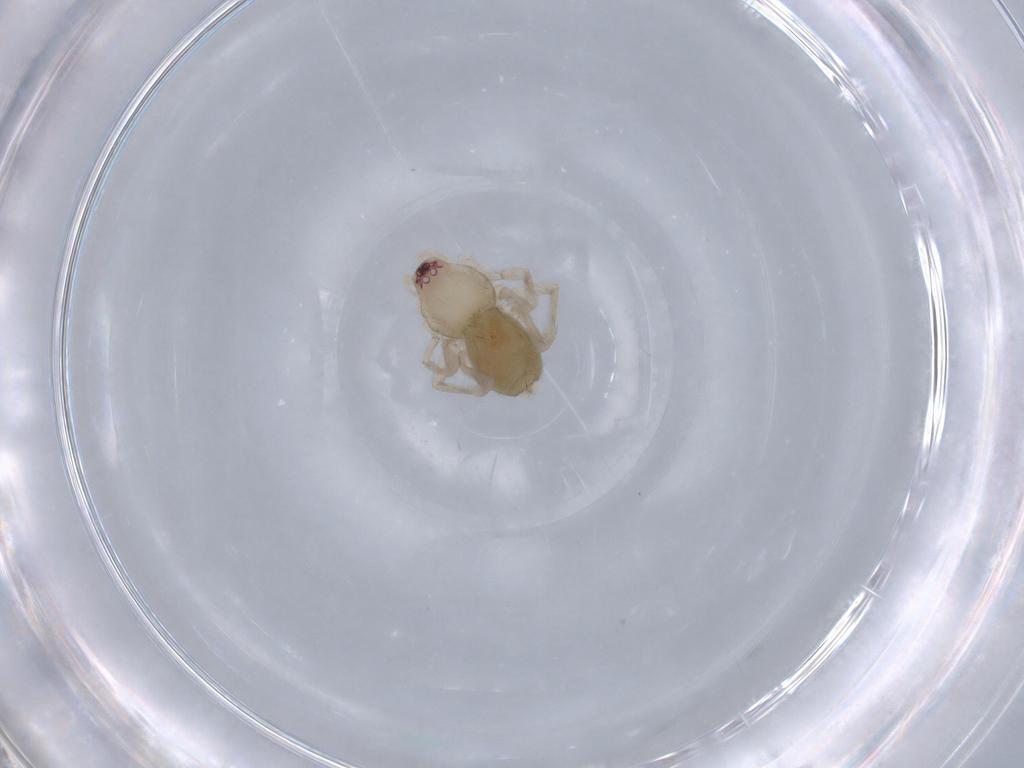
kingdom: Animalia
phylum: Arthropoda
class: Arachnida
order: Araneae
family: Gnaphosidae
